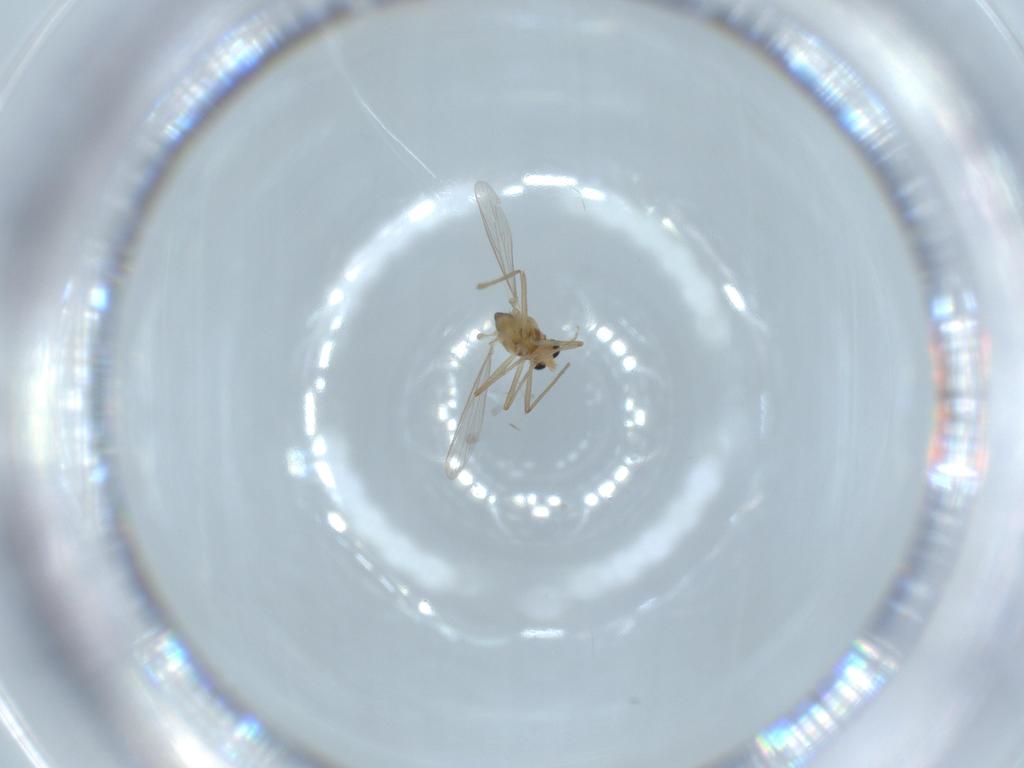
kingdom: Animalia
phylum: Arthropoda
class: Insecta
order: Diptera
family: Chironomidae
